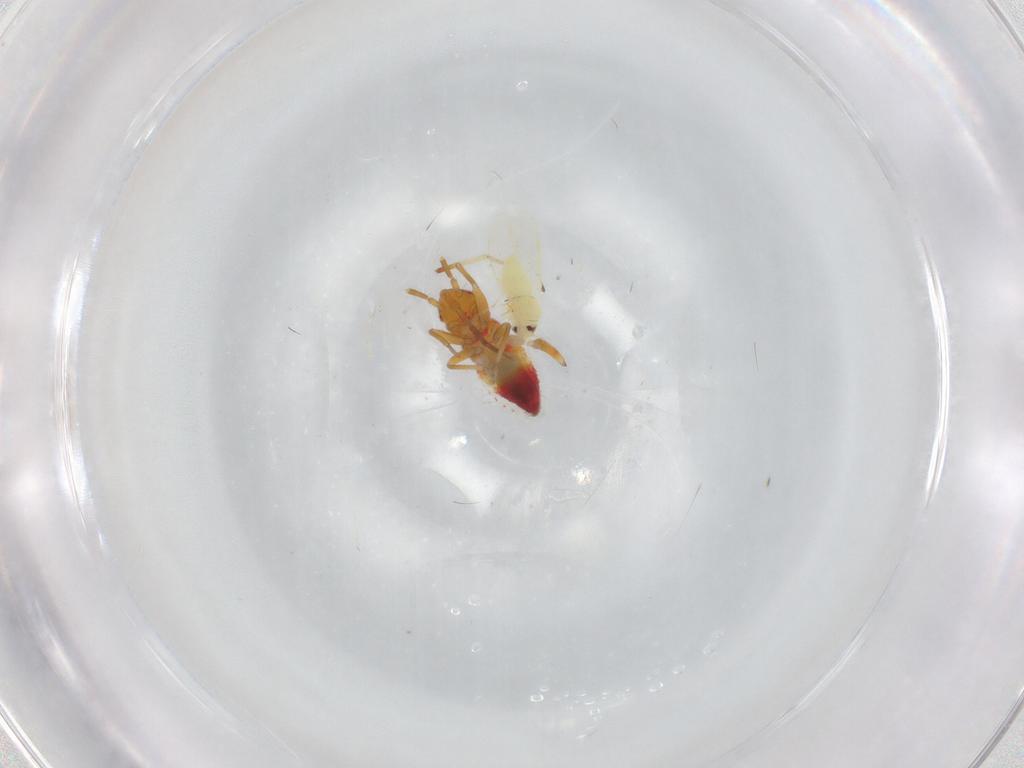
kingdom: Animalia
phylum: Arthropoda
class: Insecta
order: Hemiptera
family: Miridae
